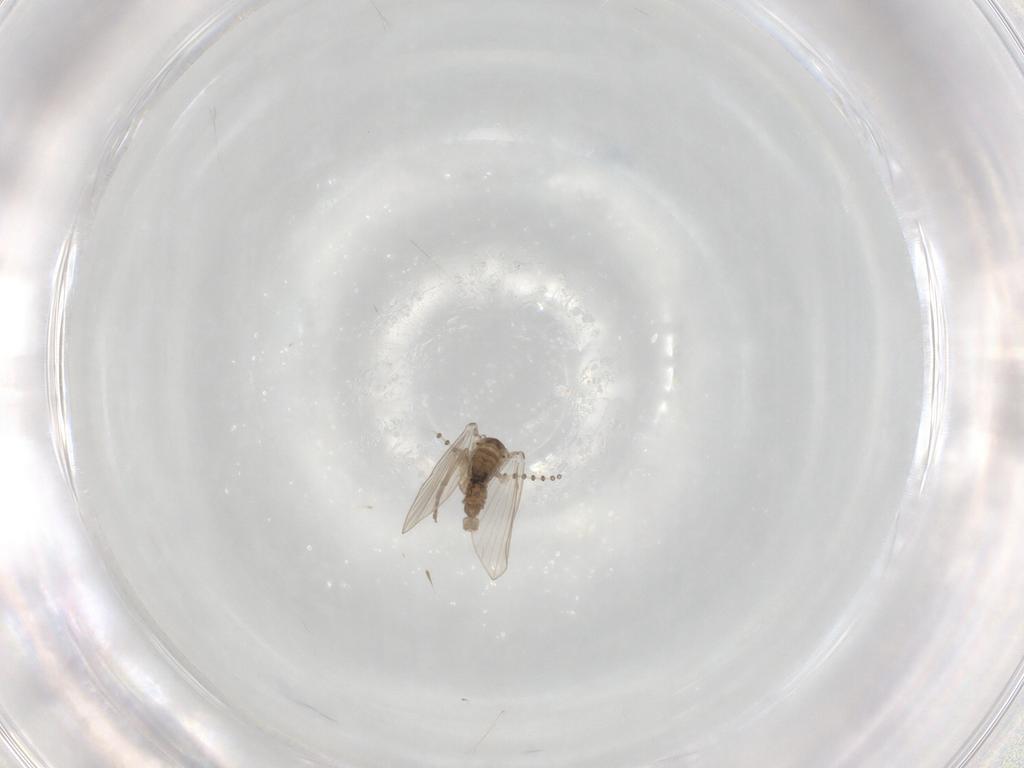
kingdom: Animalia
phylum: Arthropoda
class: Insecta
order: Diptera
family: Psychodidae
